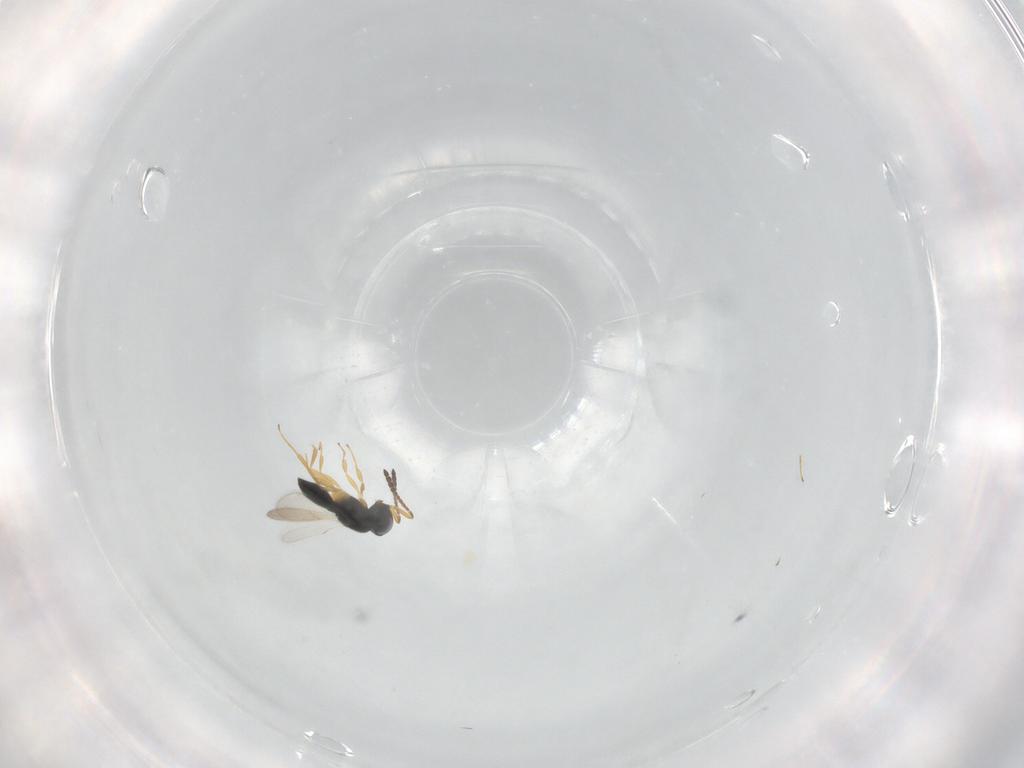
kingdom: Animalia
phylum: Arthropoda
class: Insecta
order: Hymenoptera
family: Scelionidae
